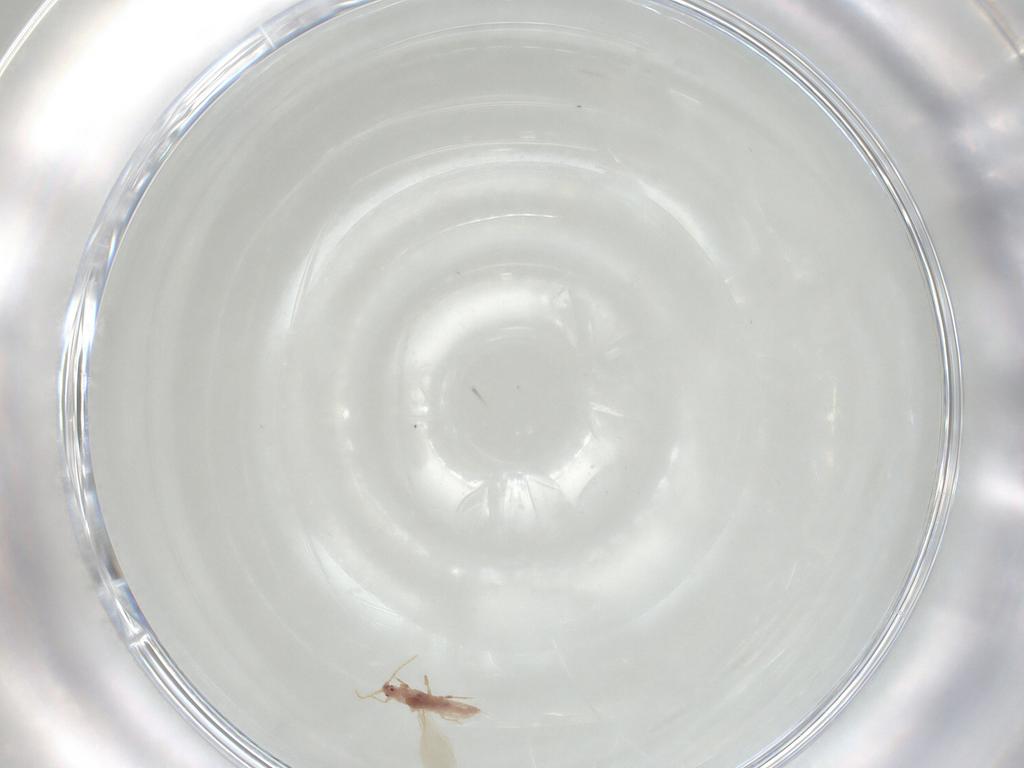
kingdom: Animalia
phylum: Arthropoda
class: Insecta
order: Hemiptera
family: Pseudococcidae
